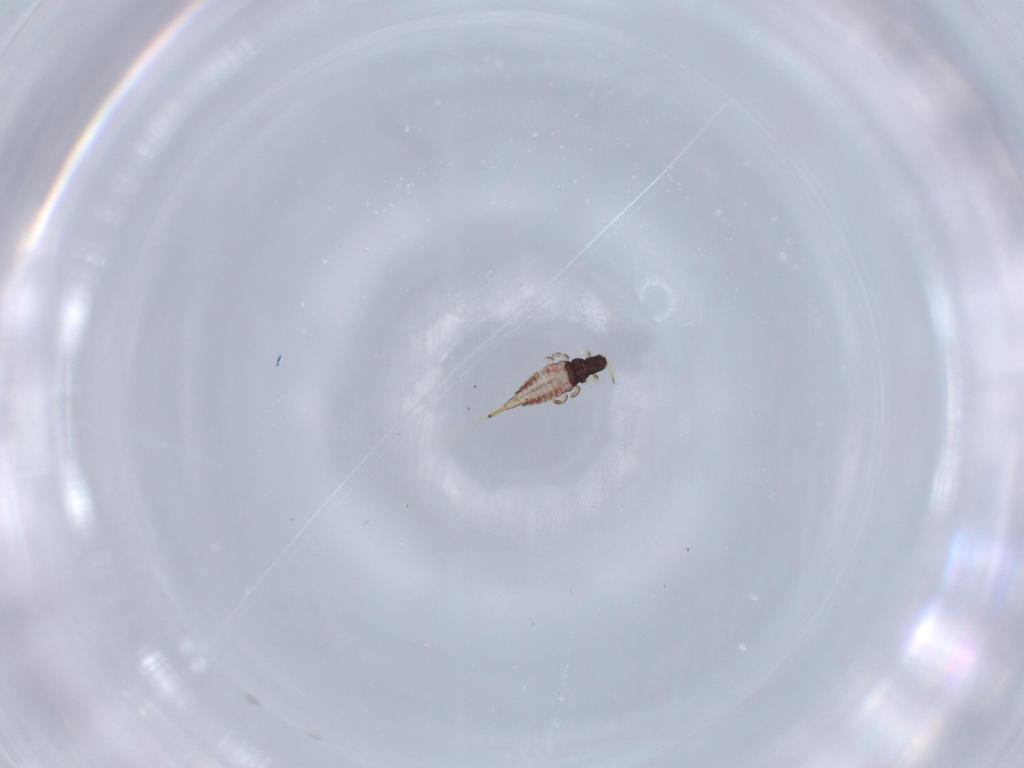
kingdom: Animalia
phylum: Arthropoda
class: Insecta
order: Thysanoptera
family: Phlaeothripidae
